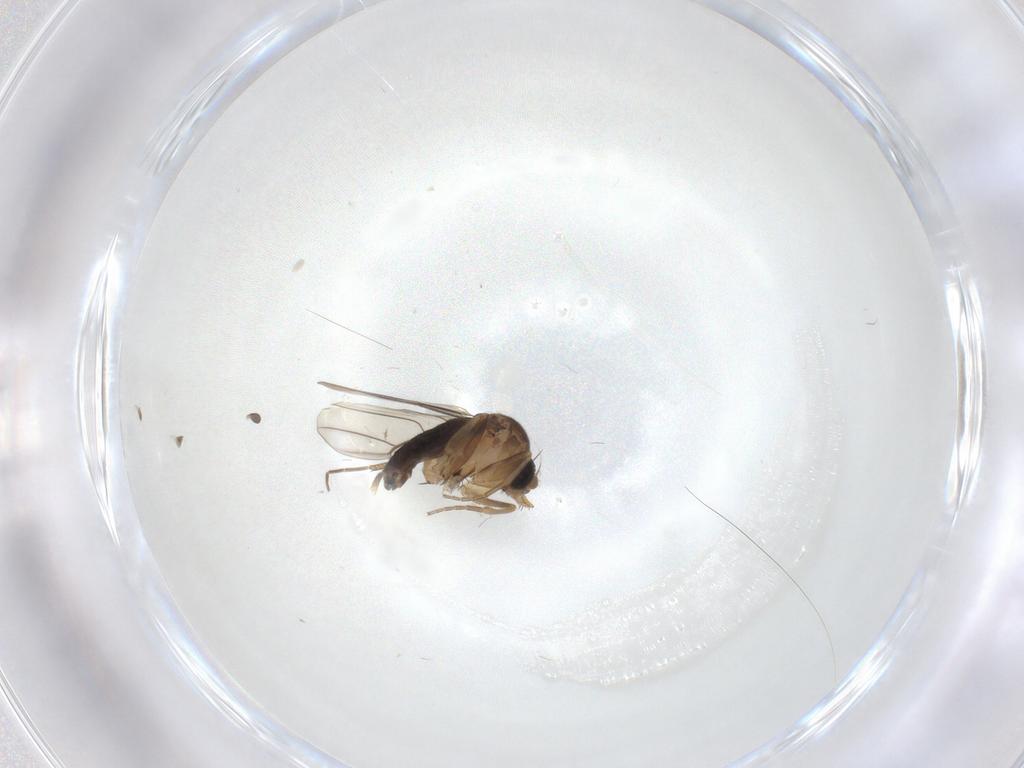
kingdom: Animalia
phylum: Arthropoda
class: Insecta
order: Diptera
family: Phoridae
